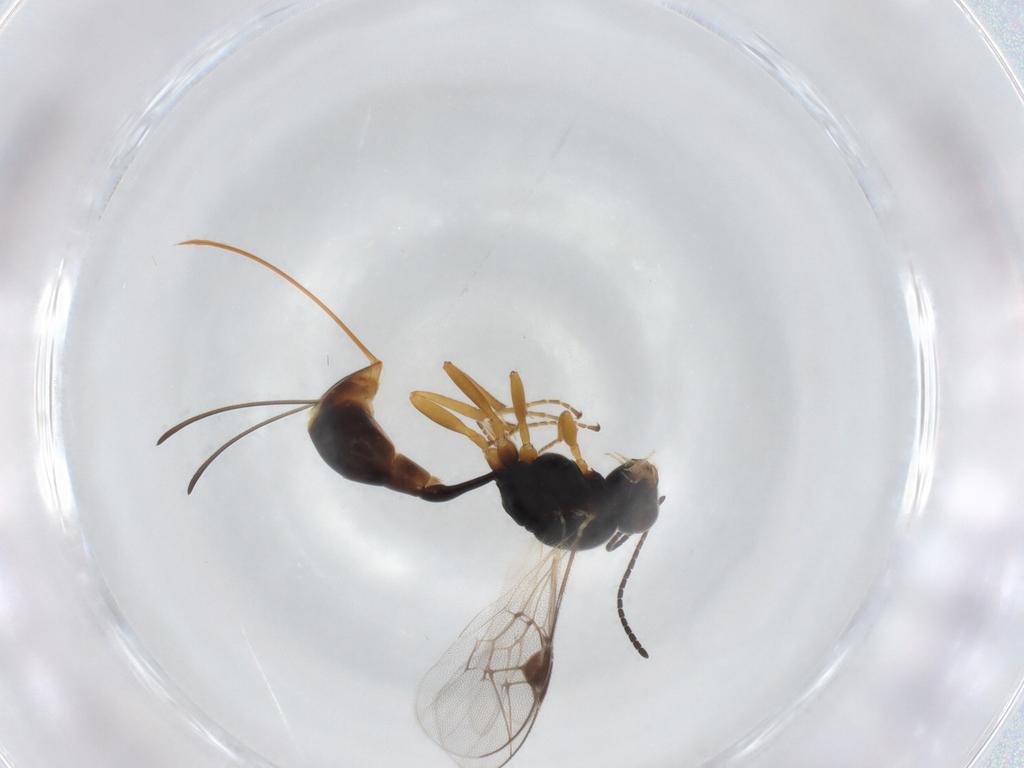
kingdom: Animalia
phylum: Arthropoda
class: Insecta
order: Hymenoptera
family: Ichneumonidae
